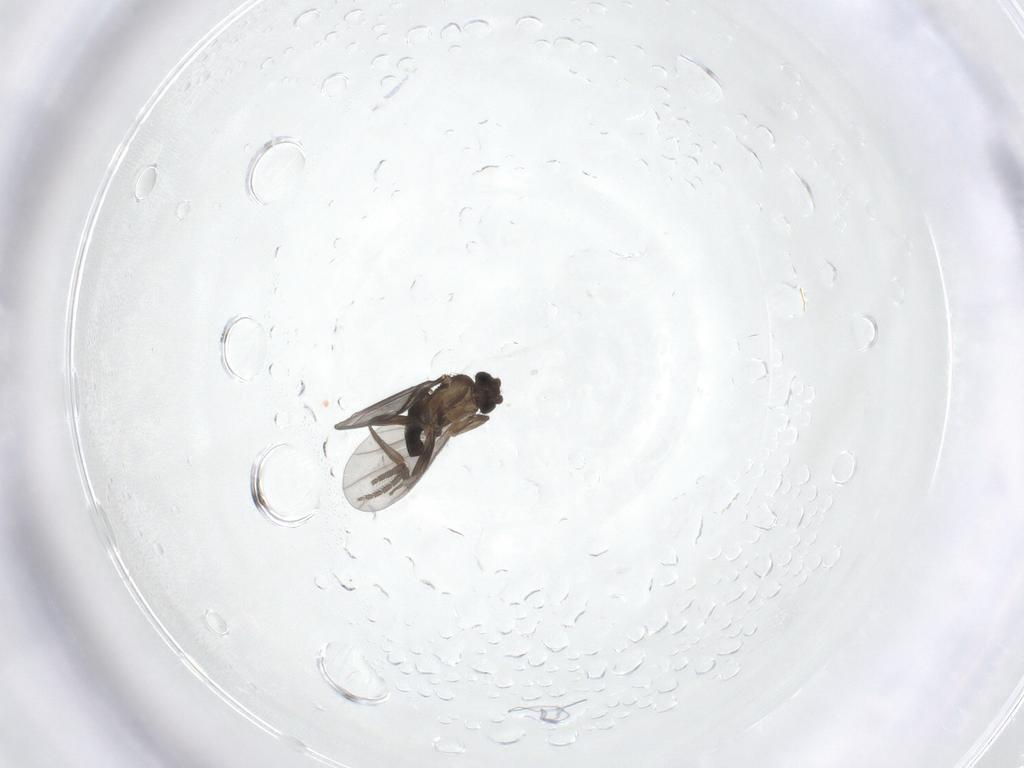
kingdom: Animalia
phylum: Arthropoda
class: Insecta
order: Diptera
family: Phoridae
